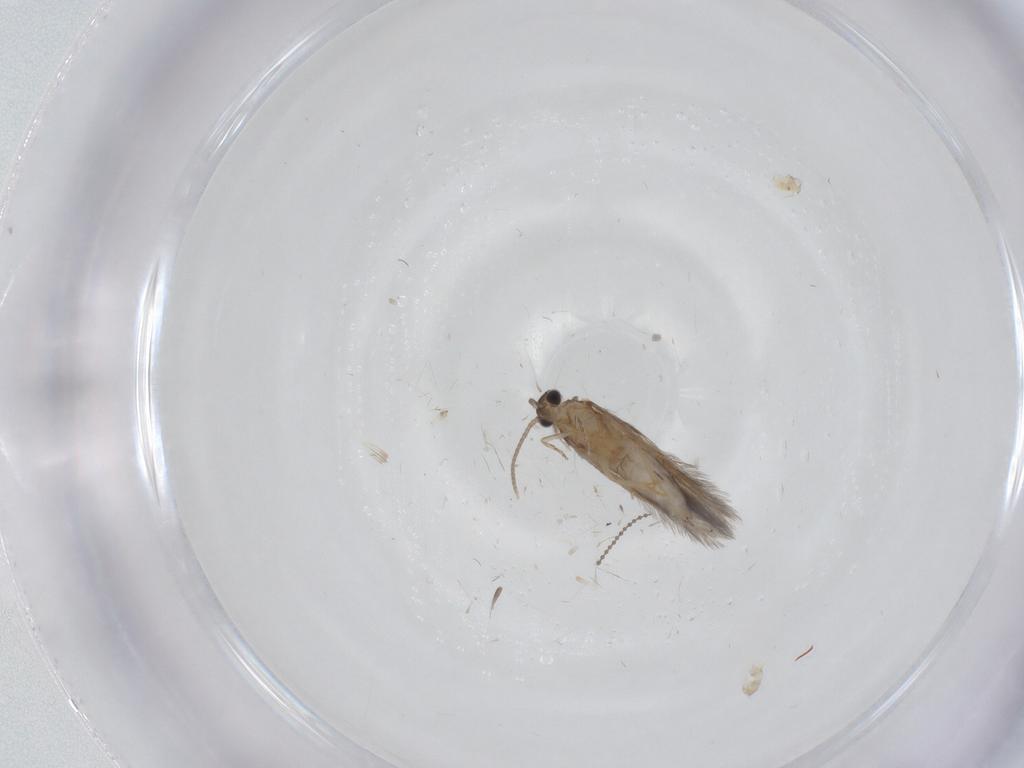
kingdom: Animalia
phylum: Arthropoda
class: Insecta
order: Trichoptera
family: Hydroptilidae
